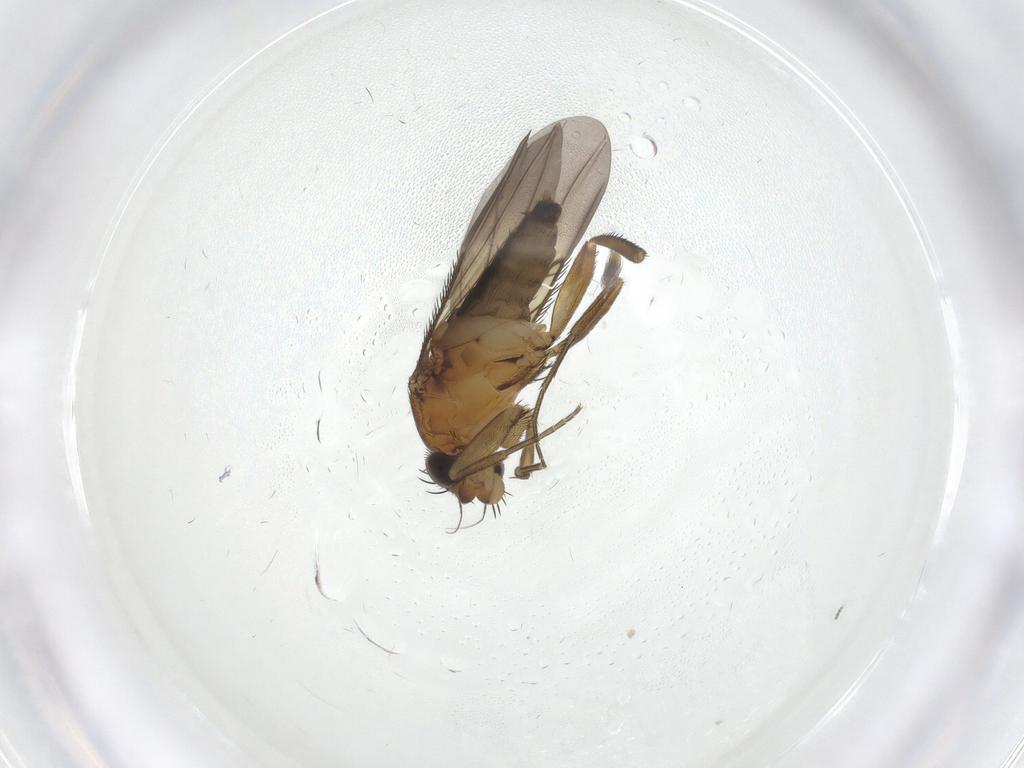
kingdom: Animalia
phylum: Arthropoda
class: Insecta
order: Diptera
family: Phoridae
